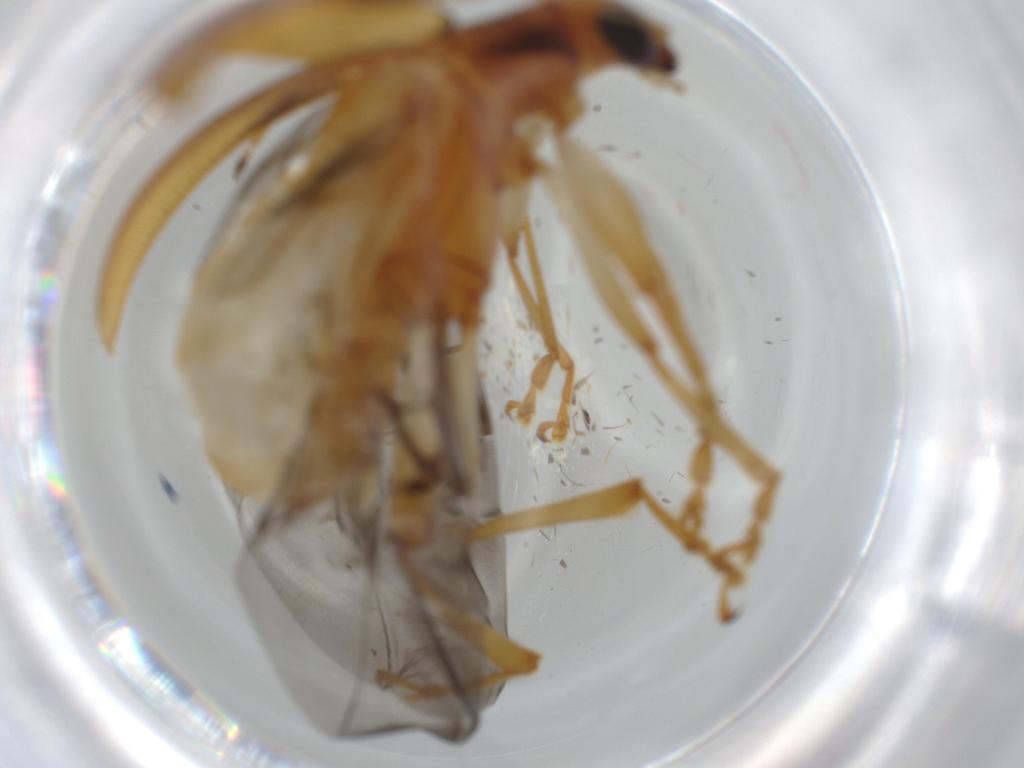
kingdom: Animalia
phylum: Arthropoda
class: Insecta
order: Coleoptera
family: Chrysomelidae
